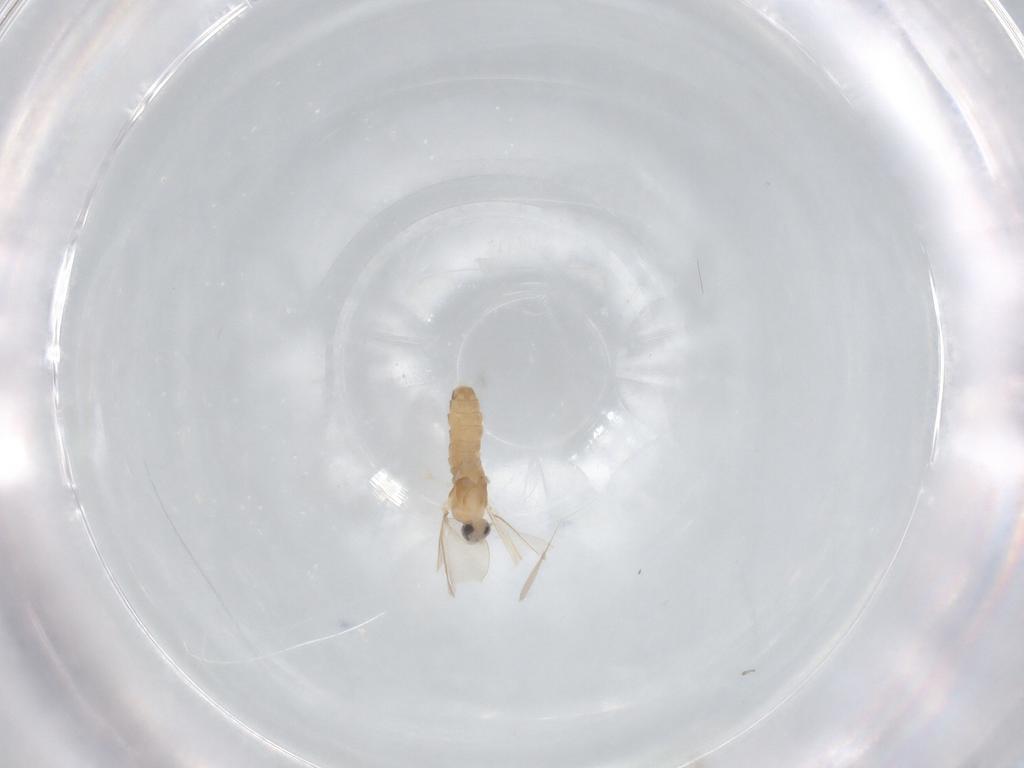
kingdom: Animalia
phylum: Arthropoda
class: Insecta
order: Diptera
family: Cecidomyiidae
